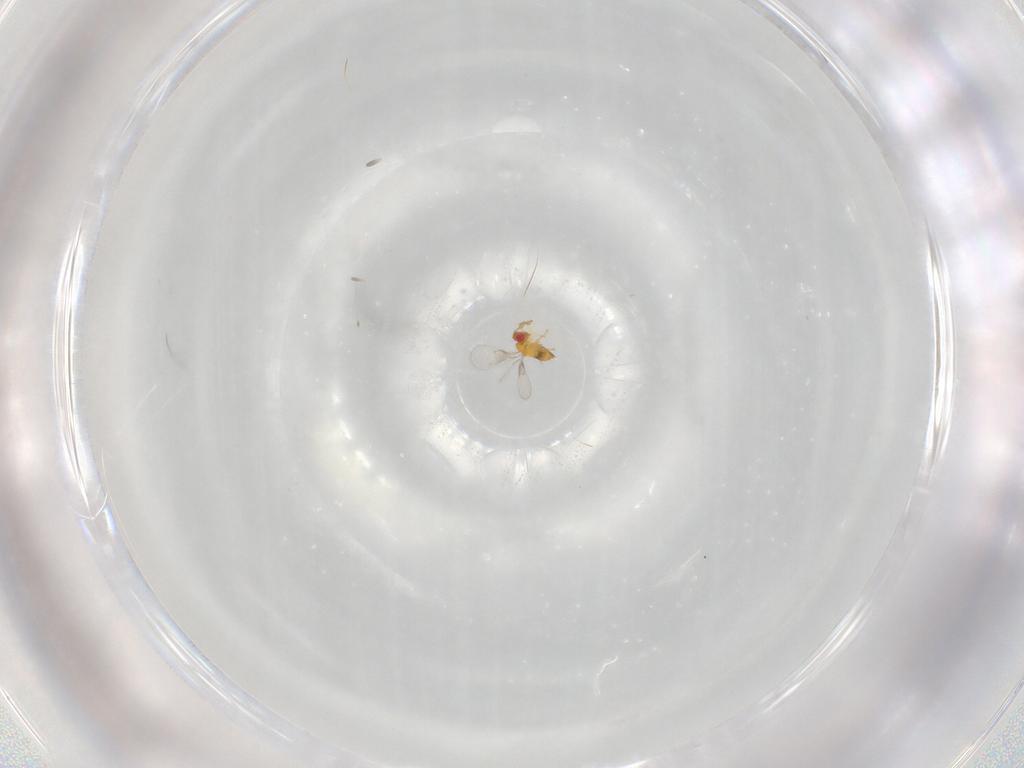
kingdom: Animalia
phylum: Arthropoda
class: Insecta
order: Hymenoptera
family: Trichogrammatidae
